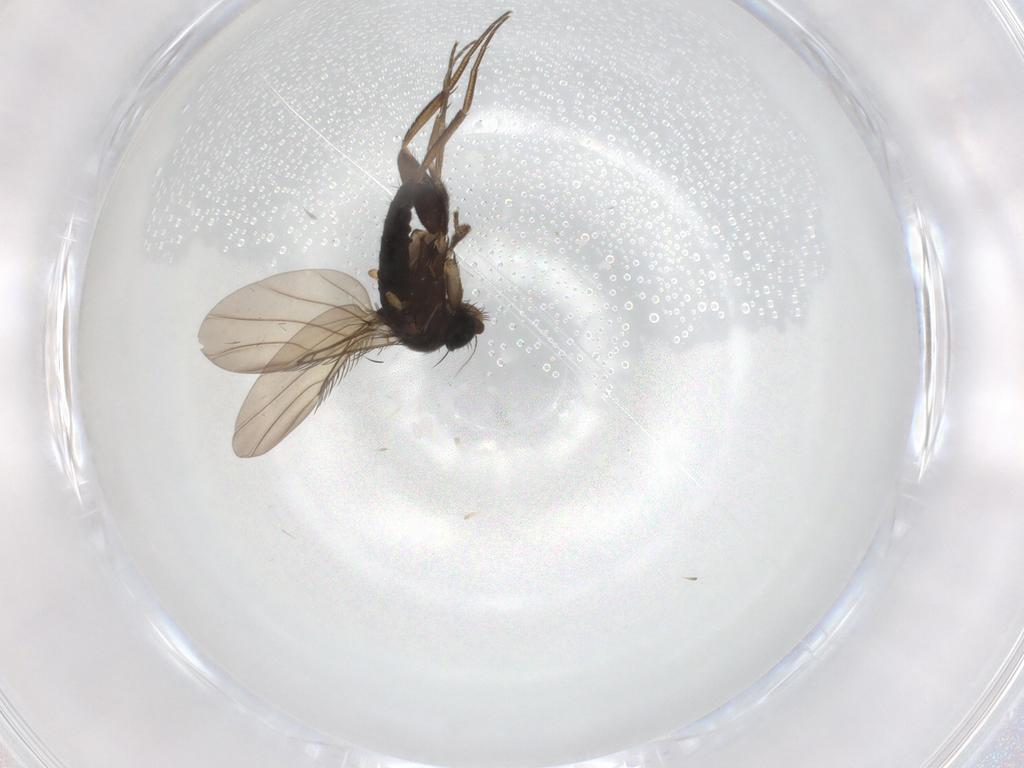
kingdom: Animalia
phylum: Arthropoda
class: Insecta
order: Diptera
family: Phoridae
